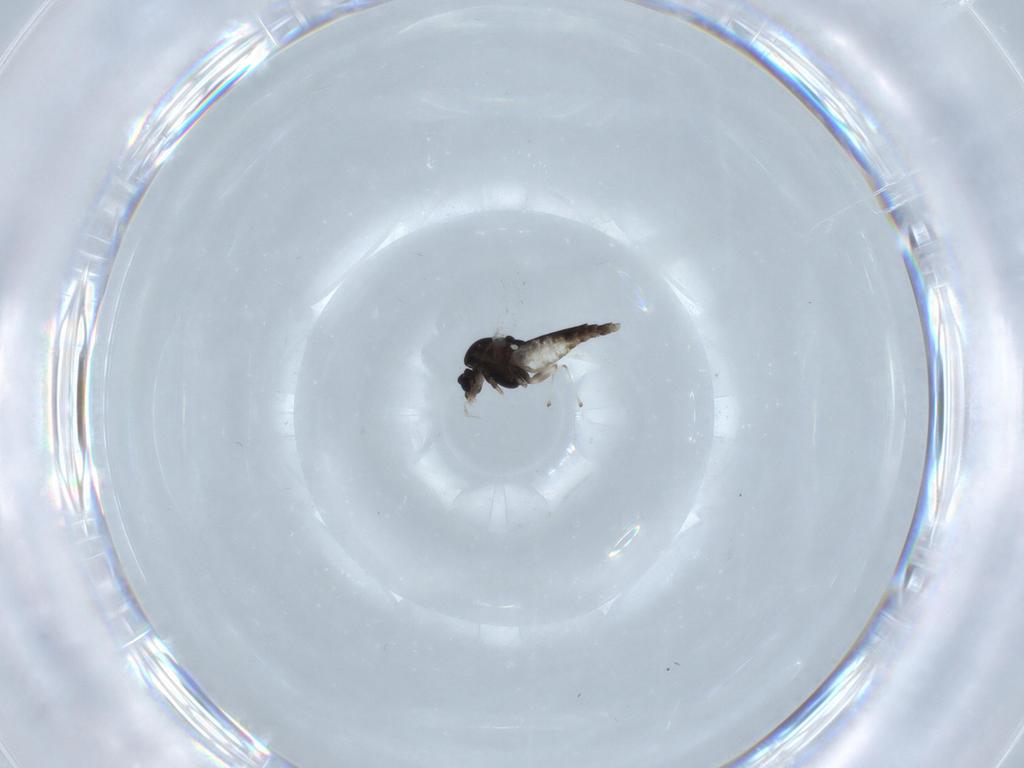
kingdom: Animalia
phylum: Arthropoda
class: Insecta
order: Diptera
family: Chironomidae
